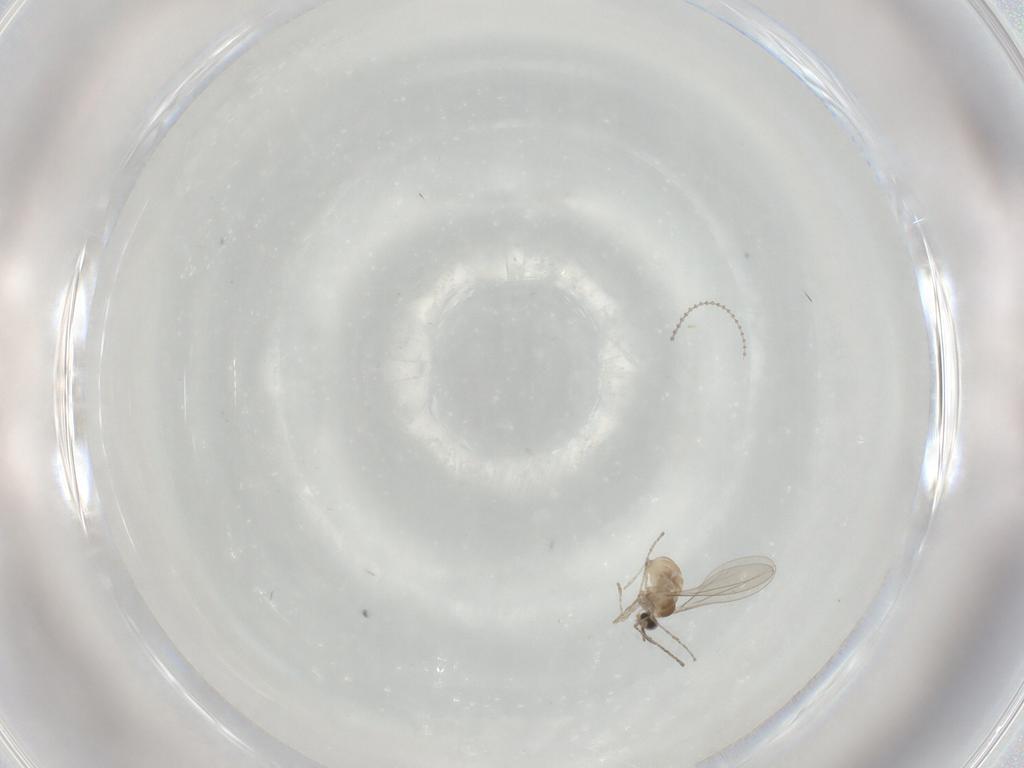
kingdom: Animalia
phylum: Arthropoda
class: Insecta
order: Diptera
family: Cecidomyiidae
